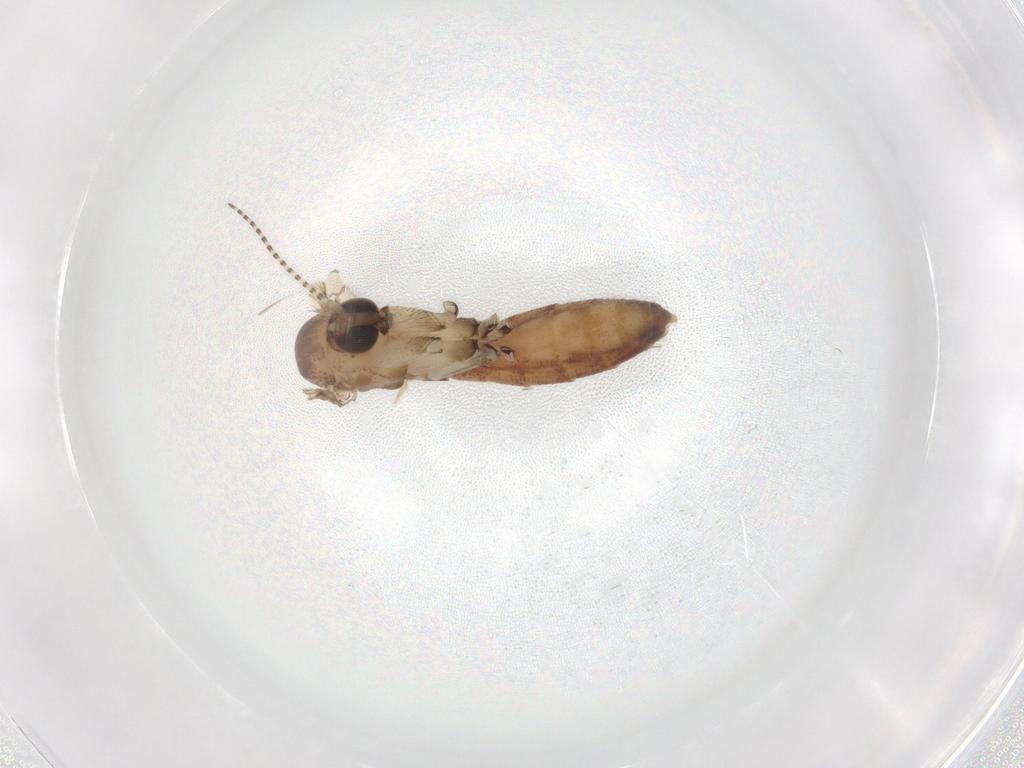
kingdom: Animalia
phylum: Arthropoda
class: Insecta
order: Diptera
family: Mycetophilidae
